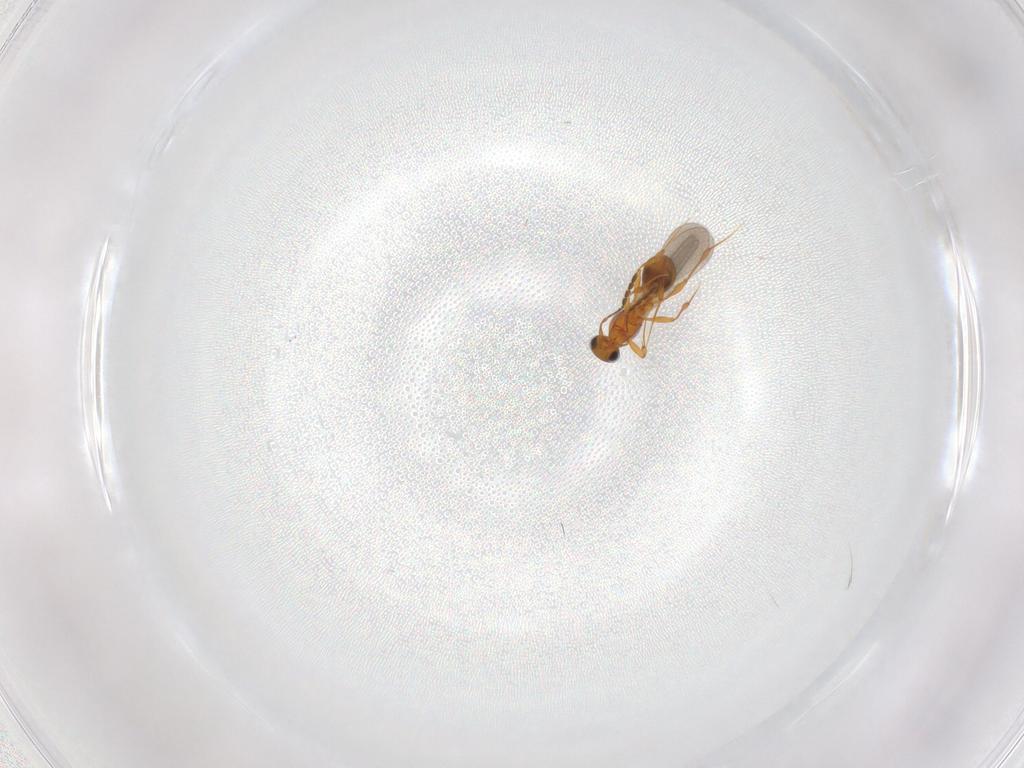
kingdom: Animalia
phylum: Arthropoda
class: Insecta
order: Hymenoptera
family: Platygastridae
